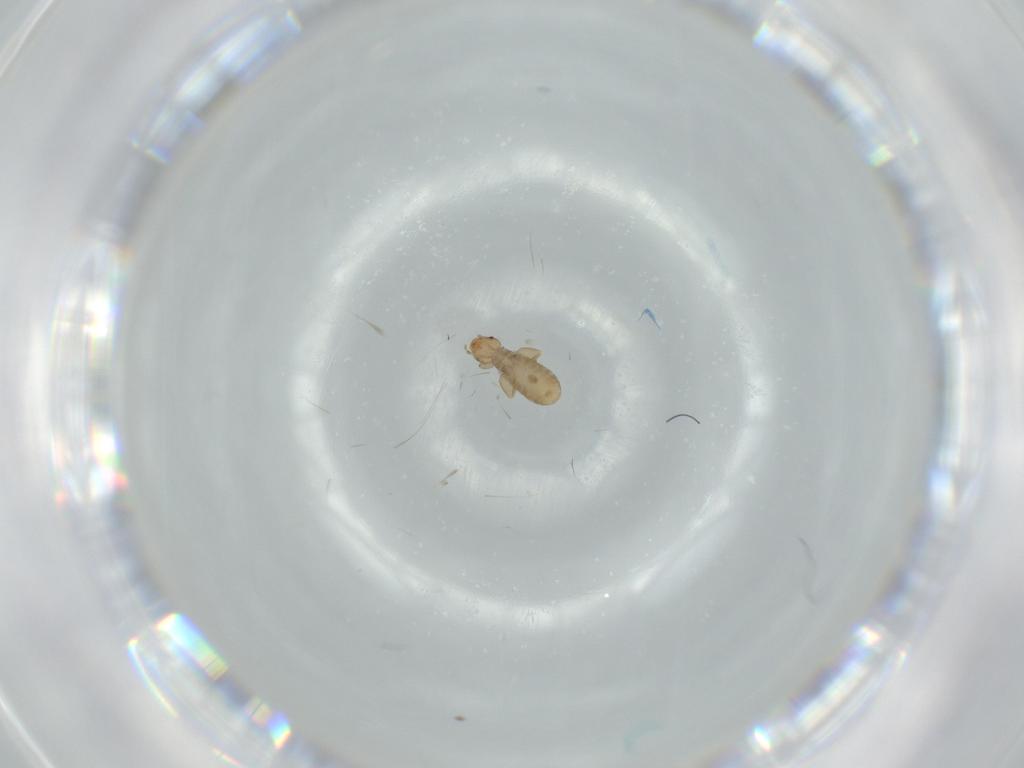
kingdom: Animalia
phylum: Arthropoda
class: Insecta
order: Psocodea
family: Liposcelididae
